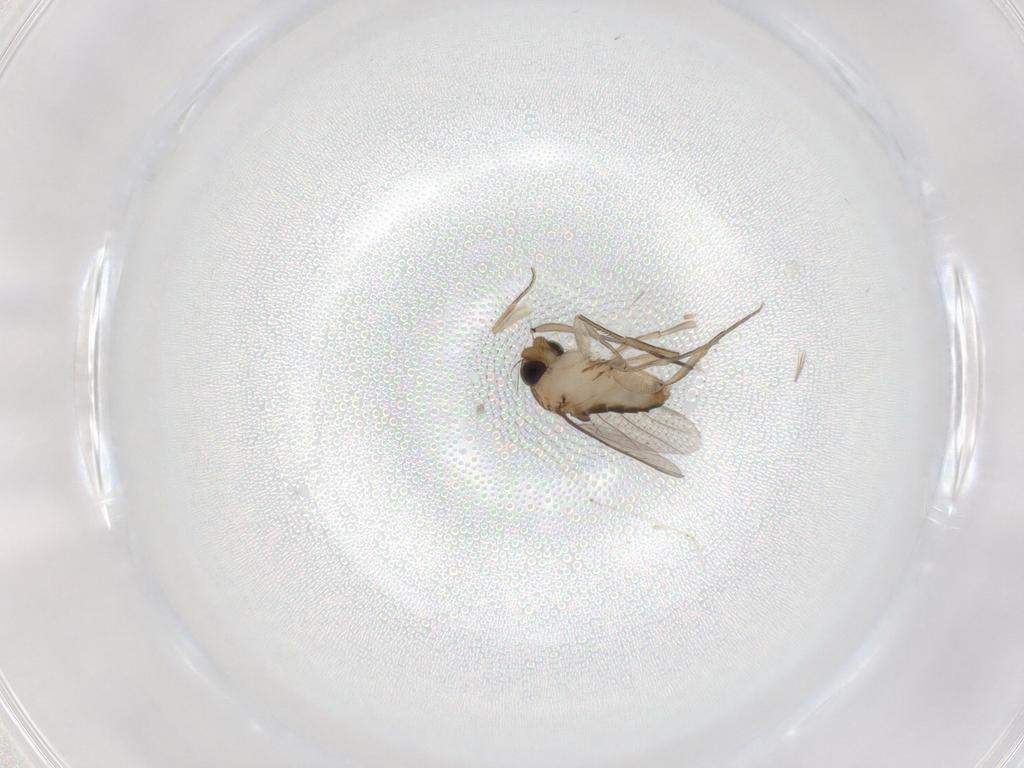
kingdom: Animalia
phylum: Arthropoda
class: Insecta
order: Diptera
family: Phoridae
